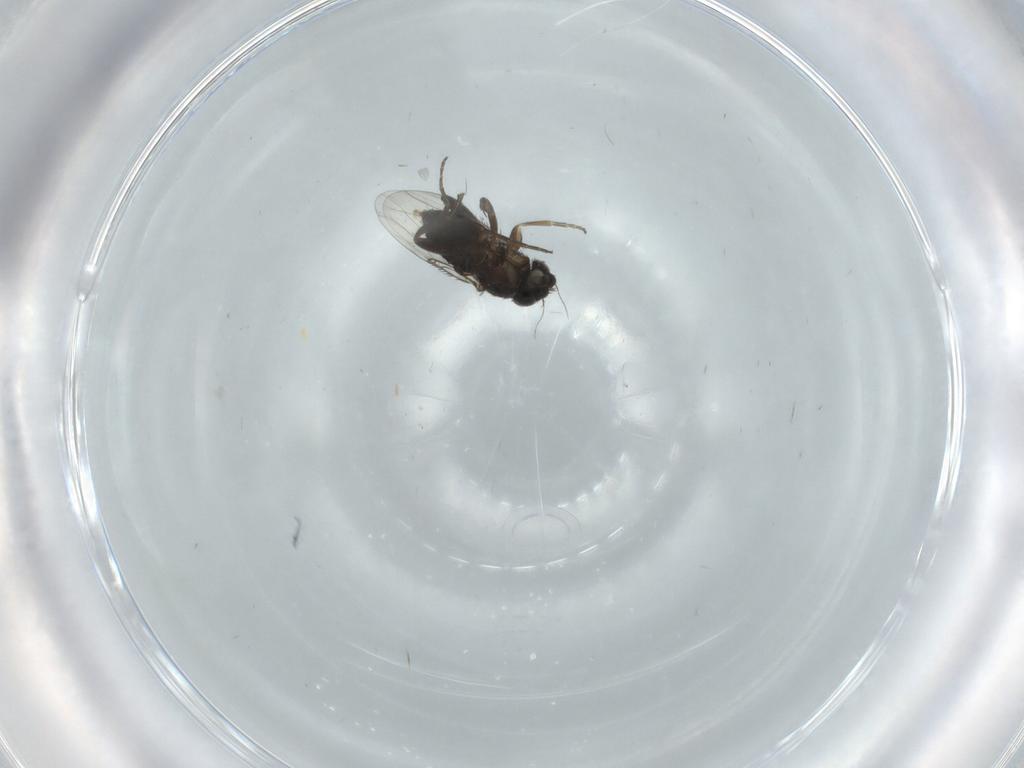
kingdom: Animalia
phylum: Arthropoda
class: Insecta
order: Diptera
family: Phoridae
